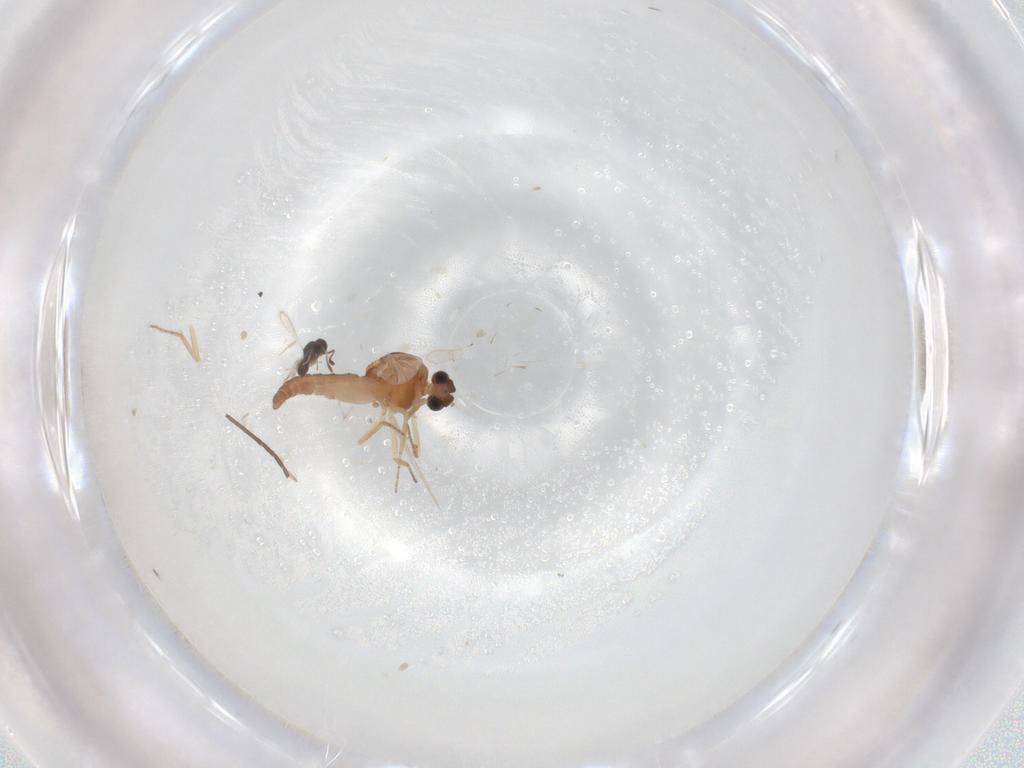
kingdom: Animalia
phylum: Arthropoda
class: Insecta
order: Diptera
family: Ceratopogonidae
